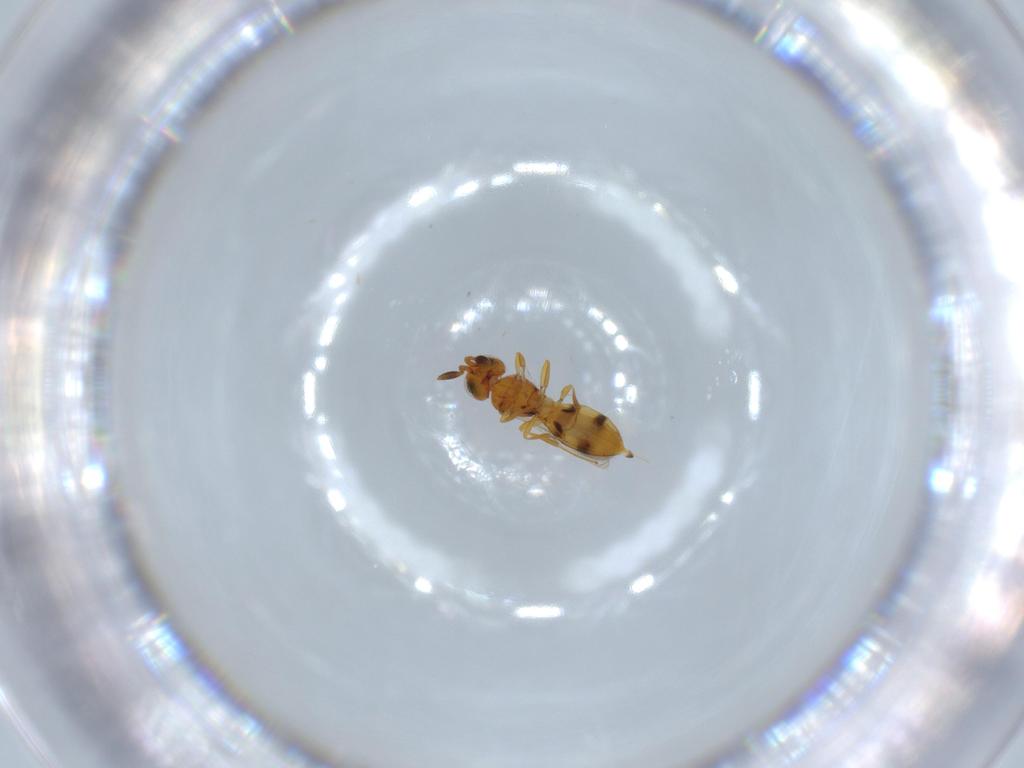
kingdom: Animalia
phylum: Arthropoda
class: Insecta
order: Hymenoptera
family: Scelionidae
